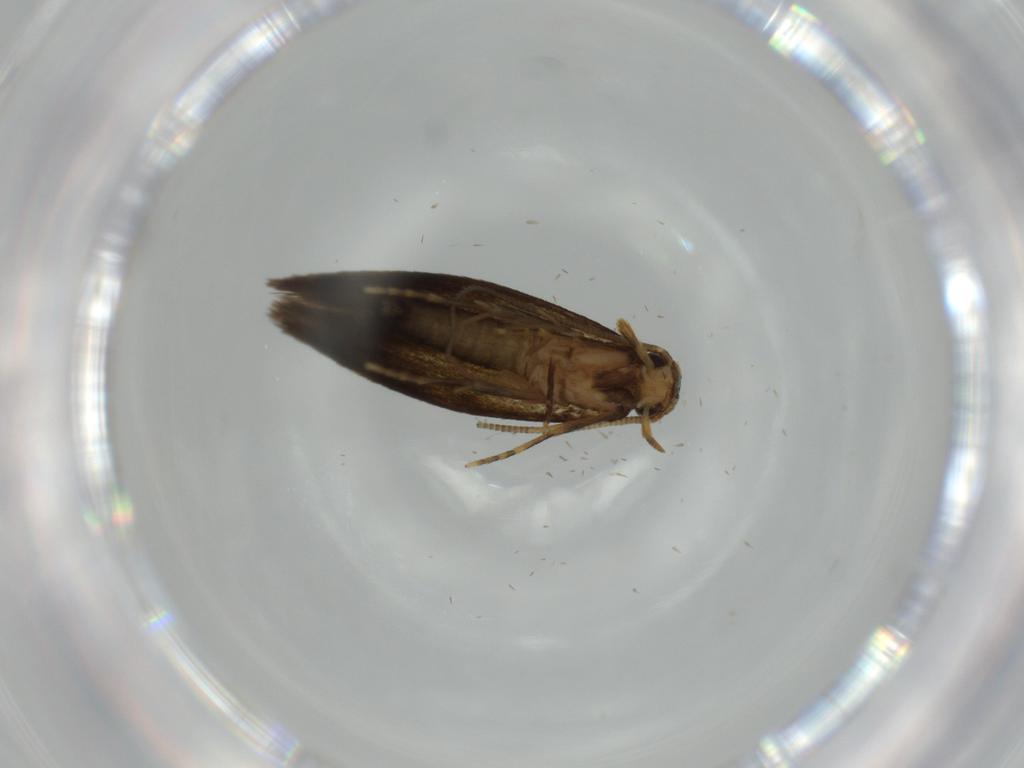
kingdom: Animalia
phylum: Arthropoda
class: Insecta
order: Lepidoptera
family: Tineidae
